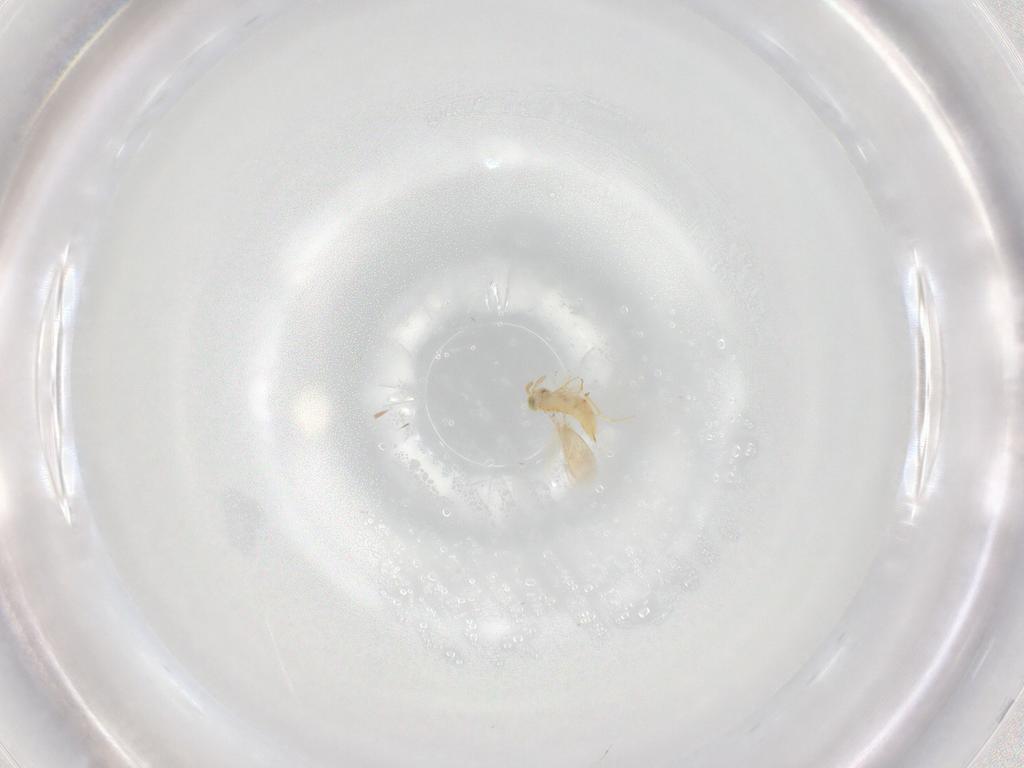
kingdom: Animalia
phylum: Arthropoda
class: Insecta
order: Hymenoptera
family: Aphelinidae
